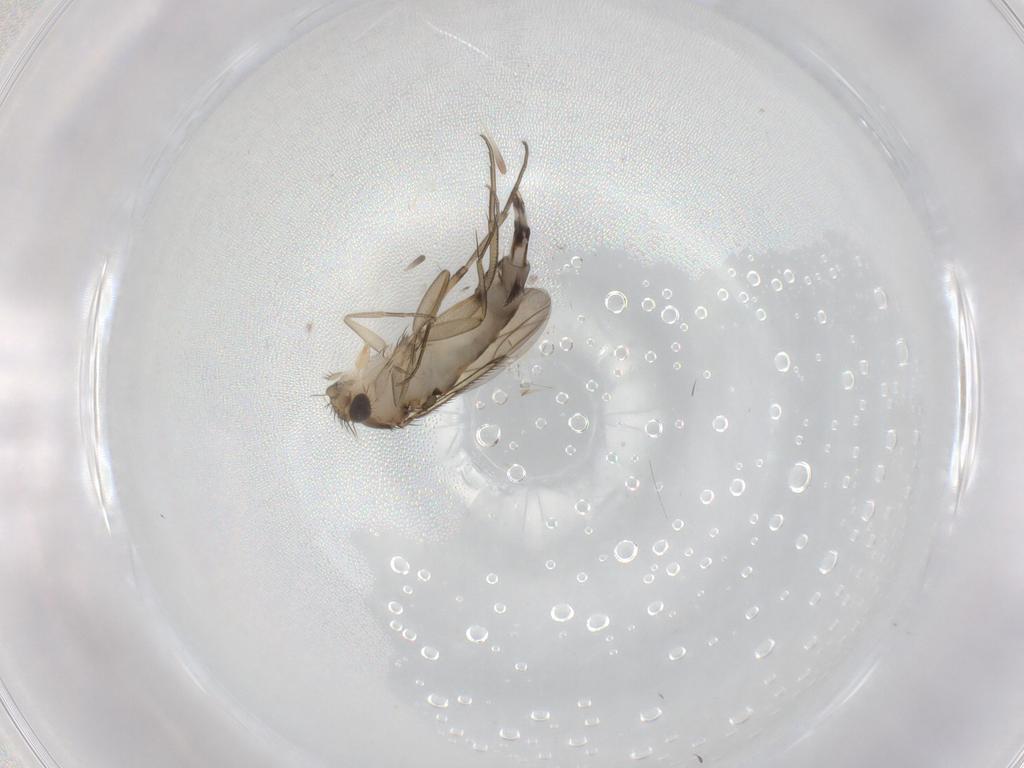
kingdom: Animalia
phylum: Arthropoda
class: Insecta
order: Diptera
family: Phoridae
